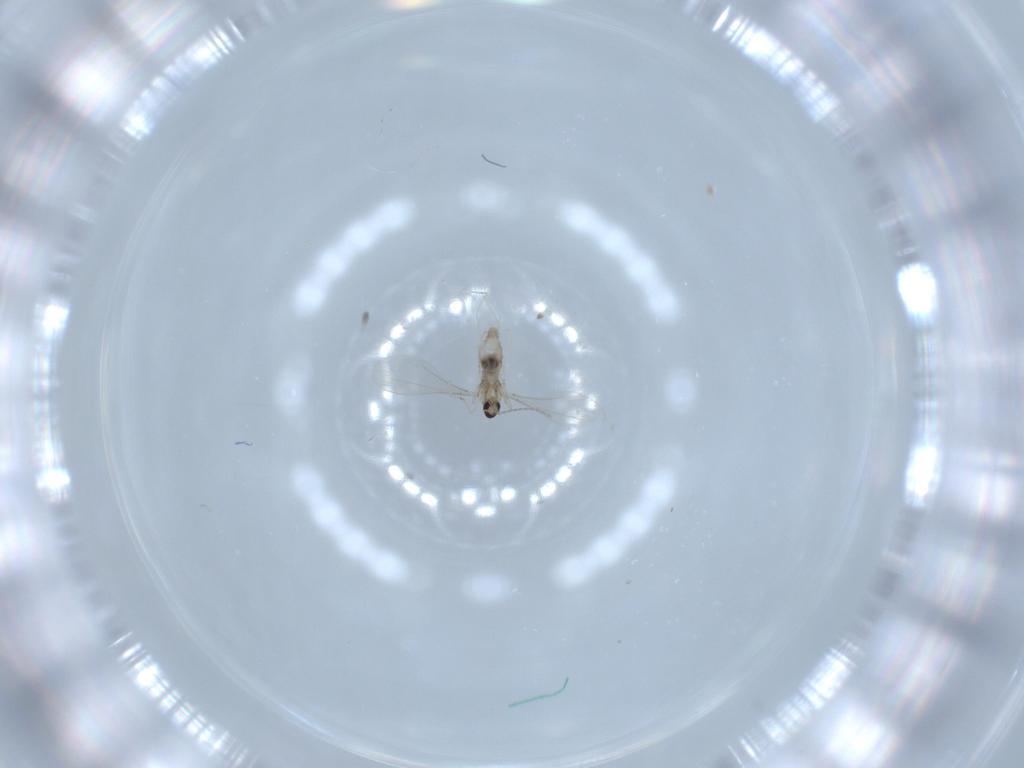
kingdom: Animalia
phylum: Arthropoda
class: Insecta
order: Diptera
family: Cecidomyiidae
